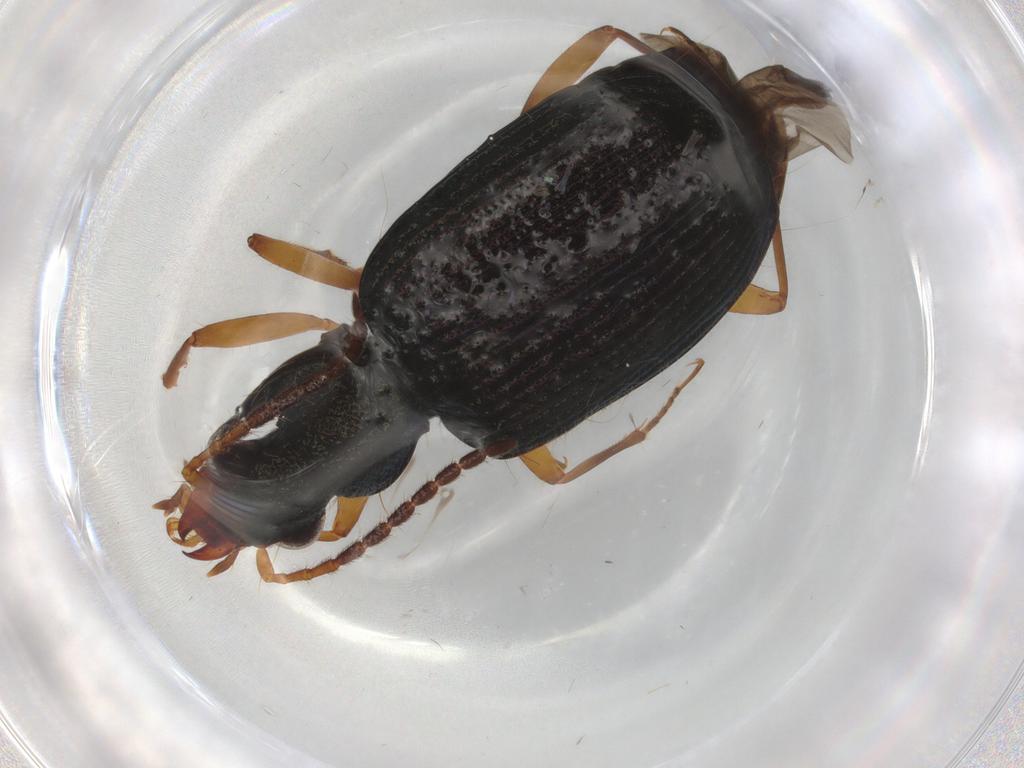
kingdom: Animalia
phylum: Arthropoda
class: Insecta
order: Coleoptera
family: Carabidae
